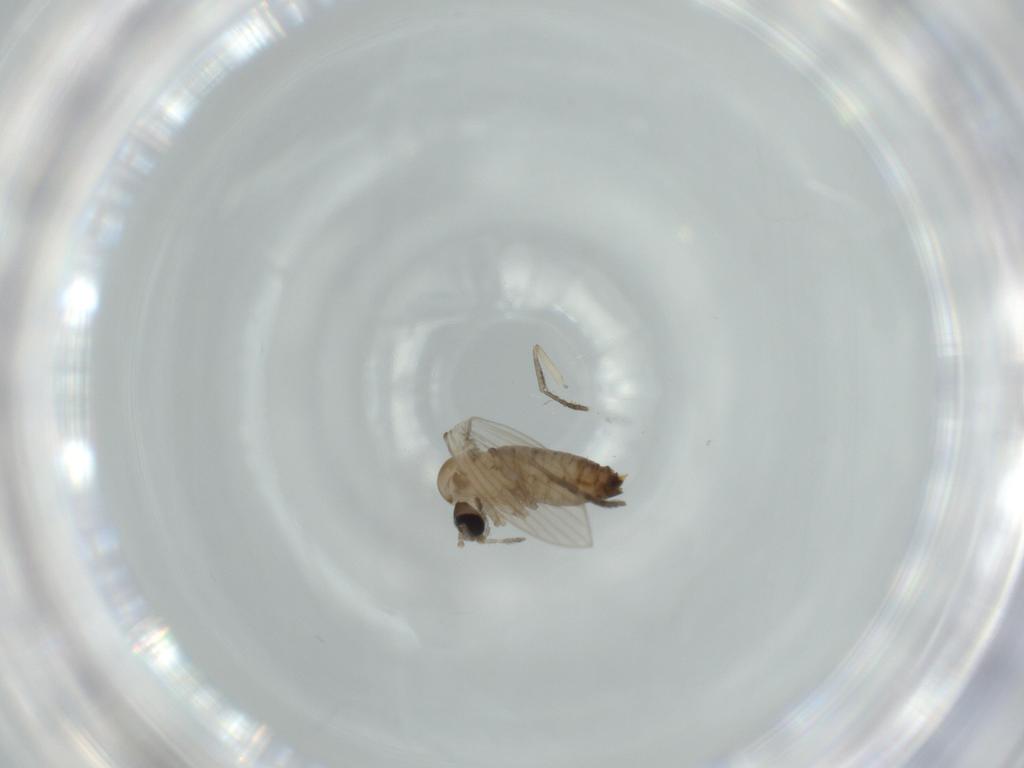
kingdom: Animalia
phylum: Arthropoda
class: Insecta
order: Diptera
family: Psychodidae
